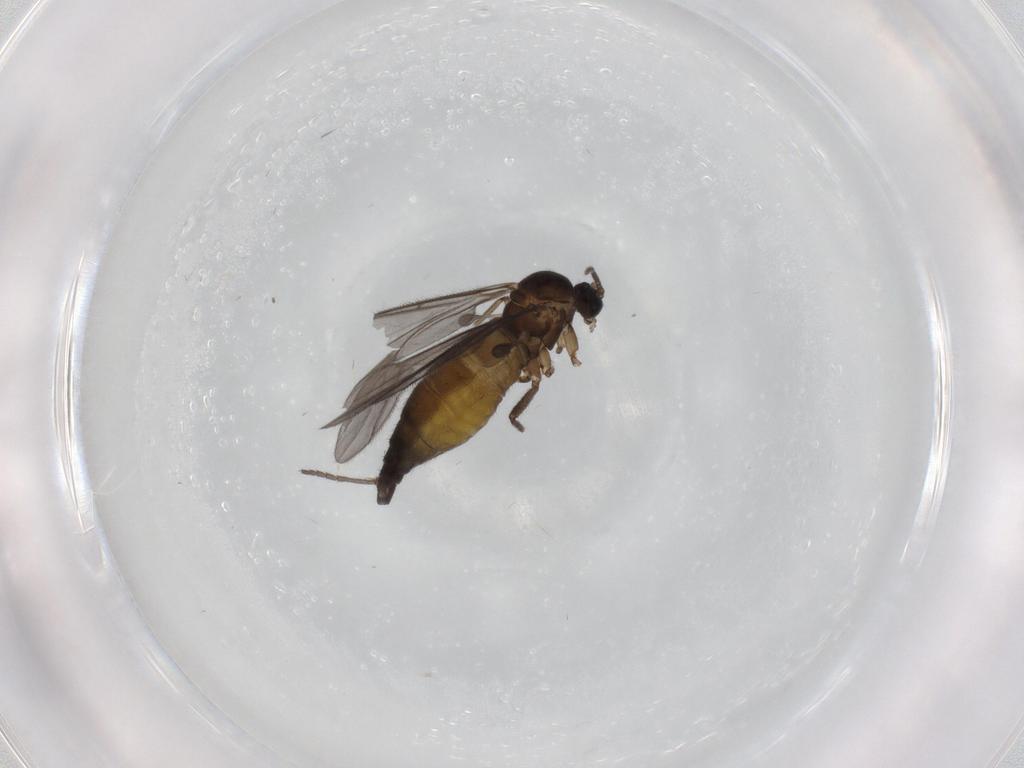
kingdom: Animalia
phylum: Arthropoda
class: Insecta
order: Diptera
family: Sciaridae
